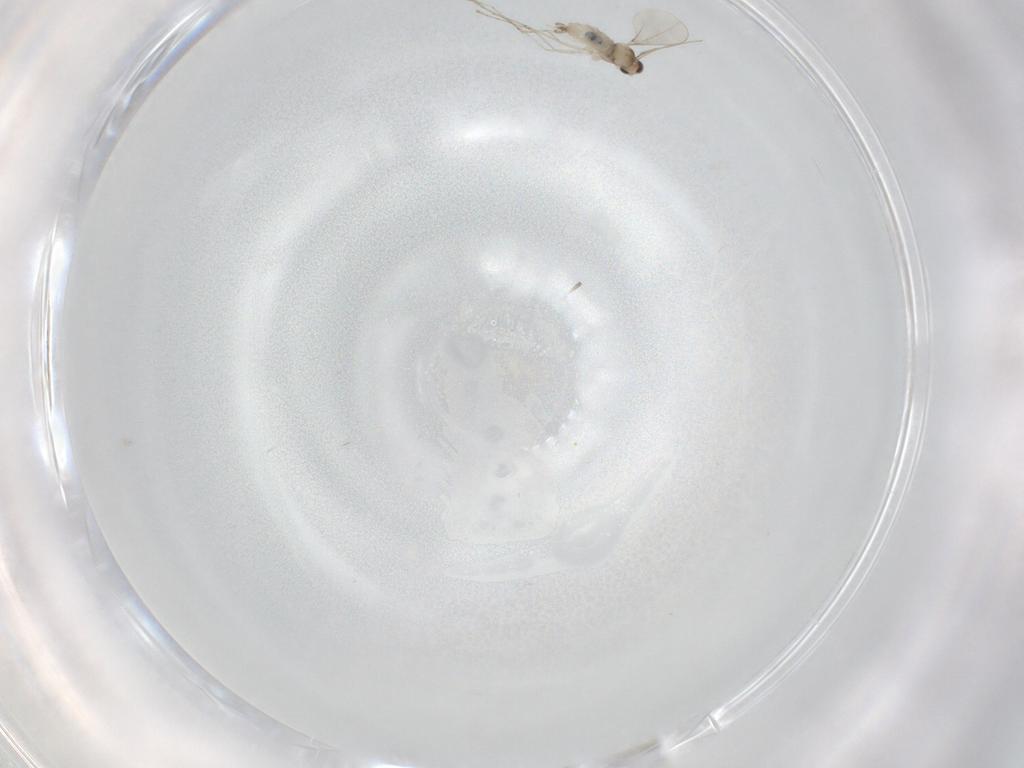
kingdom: Animalia
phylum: Arthropoda
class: Insecta
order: Diptera
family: Cecidomyiidae
